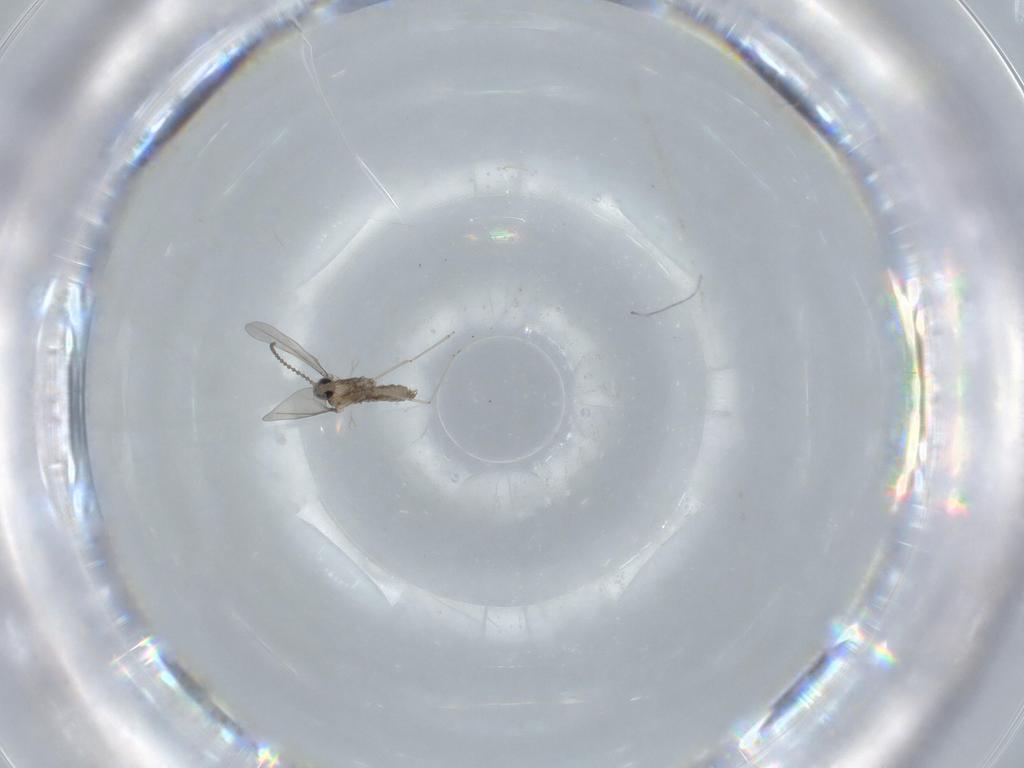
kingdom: Animalia
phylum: Arthropoda
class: Insecta
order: Diptera
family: Cecidomyiidae
